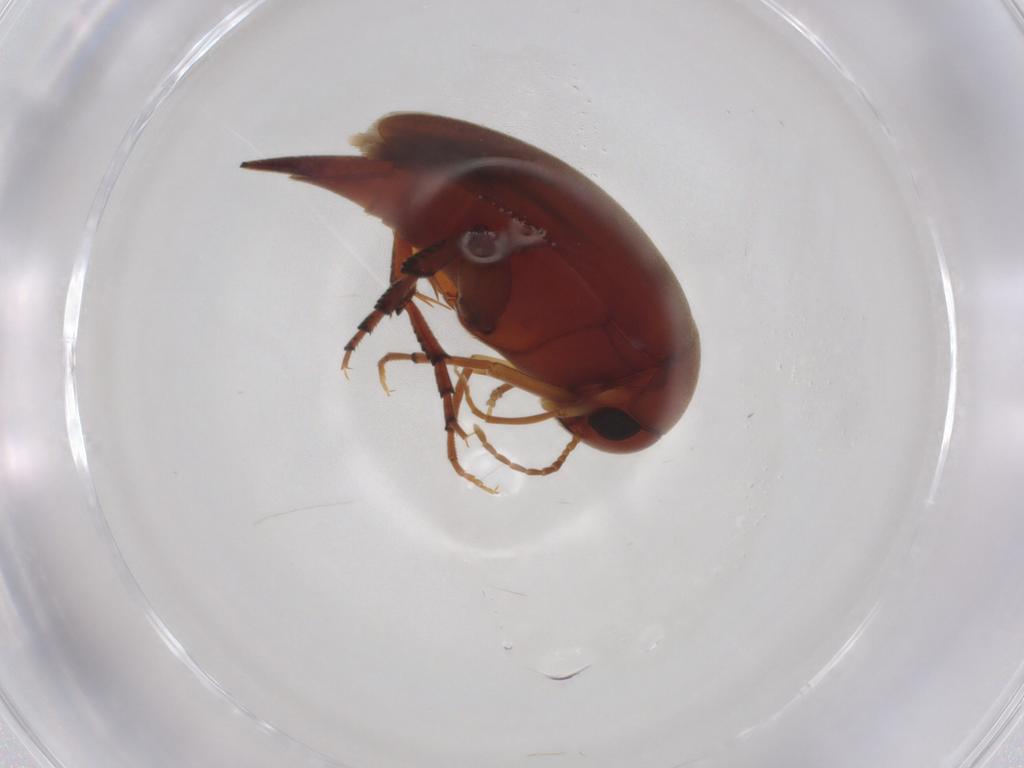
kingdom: Animalia
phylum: Arthropoda
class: Insecta
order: Coleoptera
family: Mordellidae
